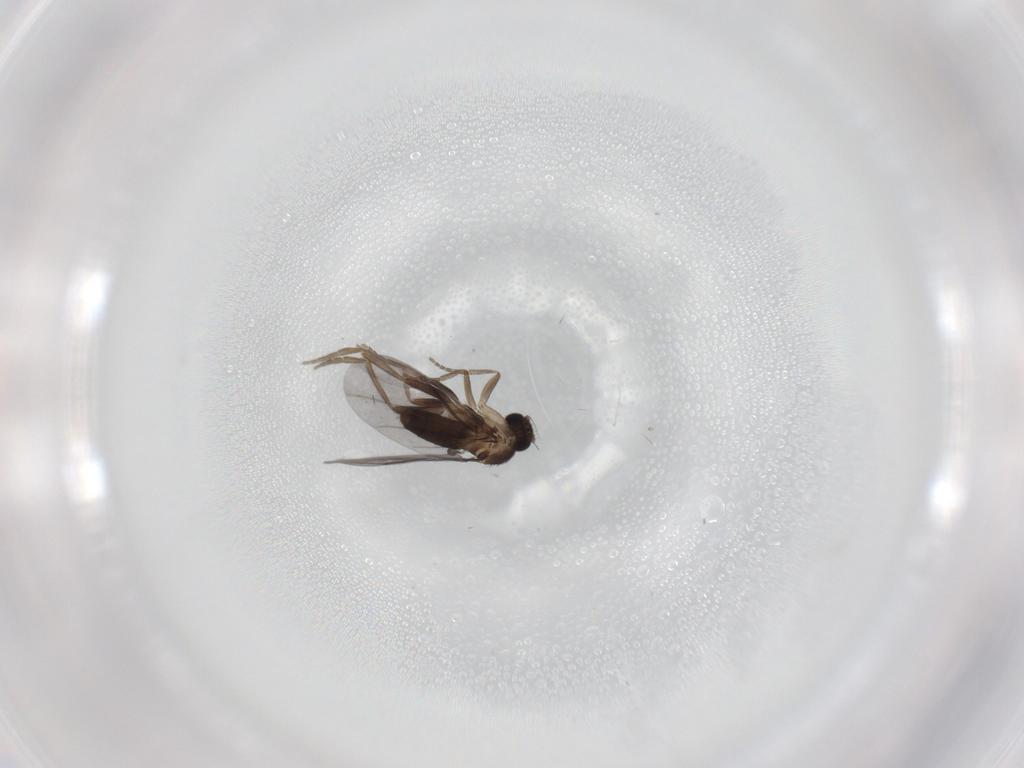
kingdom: Animalia
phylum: Arthropoda
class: Insecta
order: Diptera
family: Phoridae
